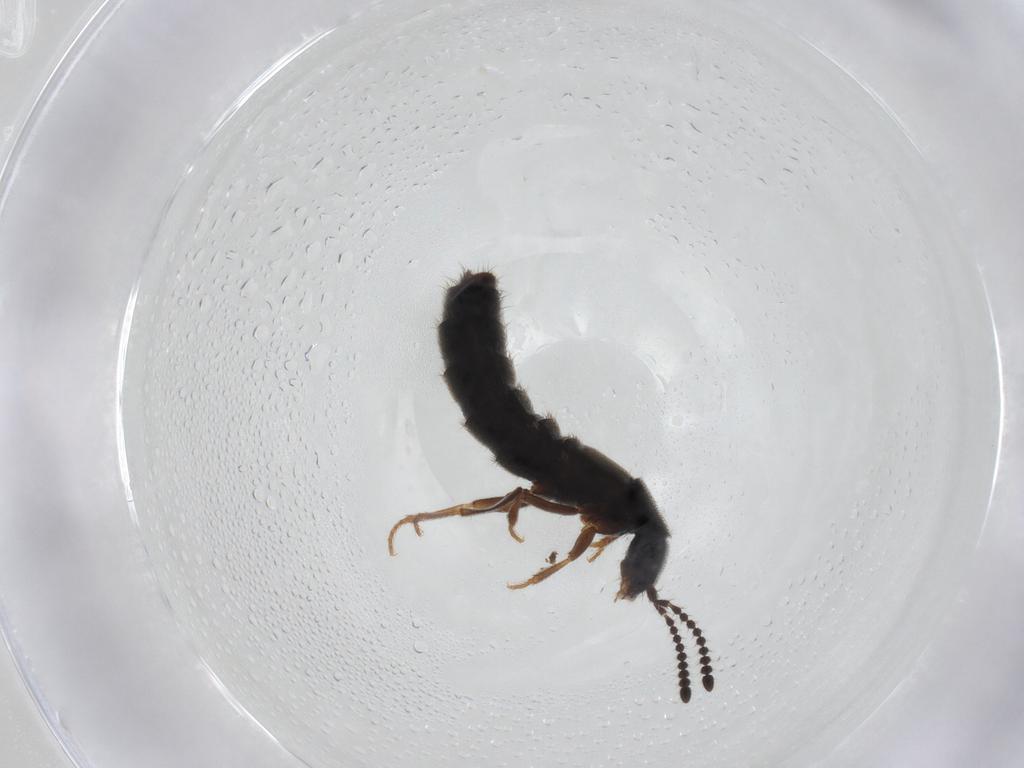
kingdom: Animalia
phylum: Arthropoda
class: Insecta
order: Coleoptera
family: Staphylinidae
